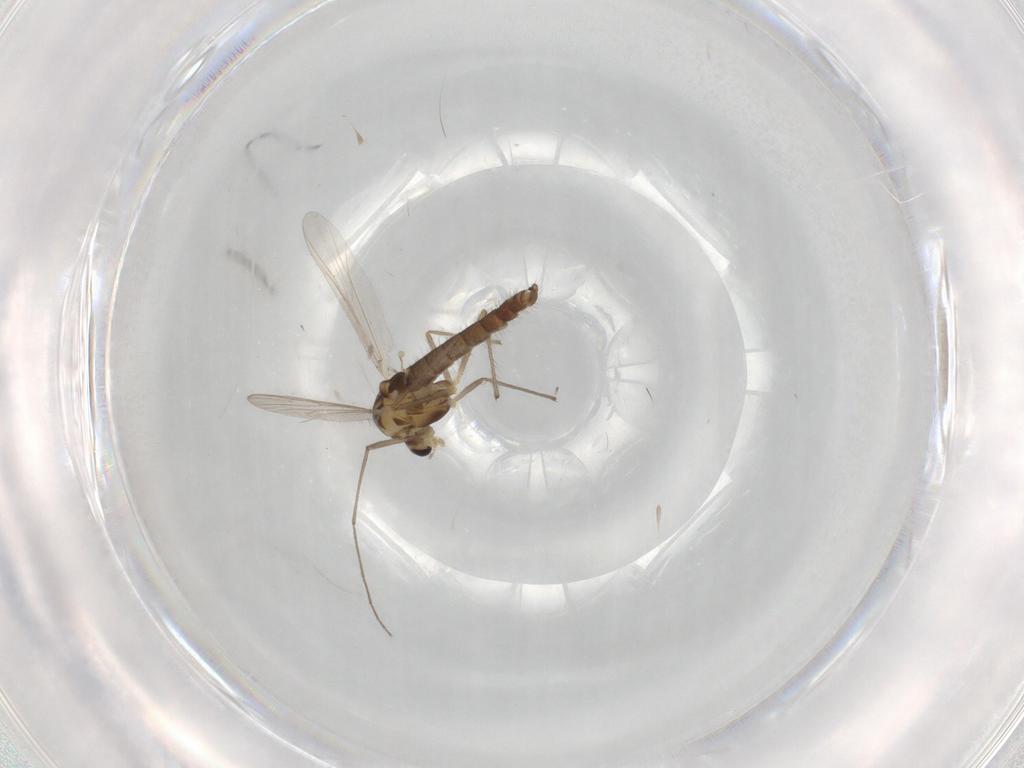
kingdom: Animalia
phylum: Arthropoda
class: Insecta
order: Diptera
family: Chironomidae
